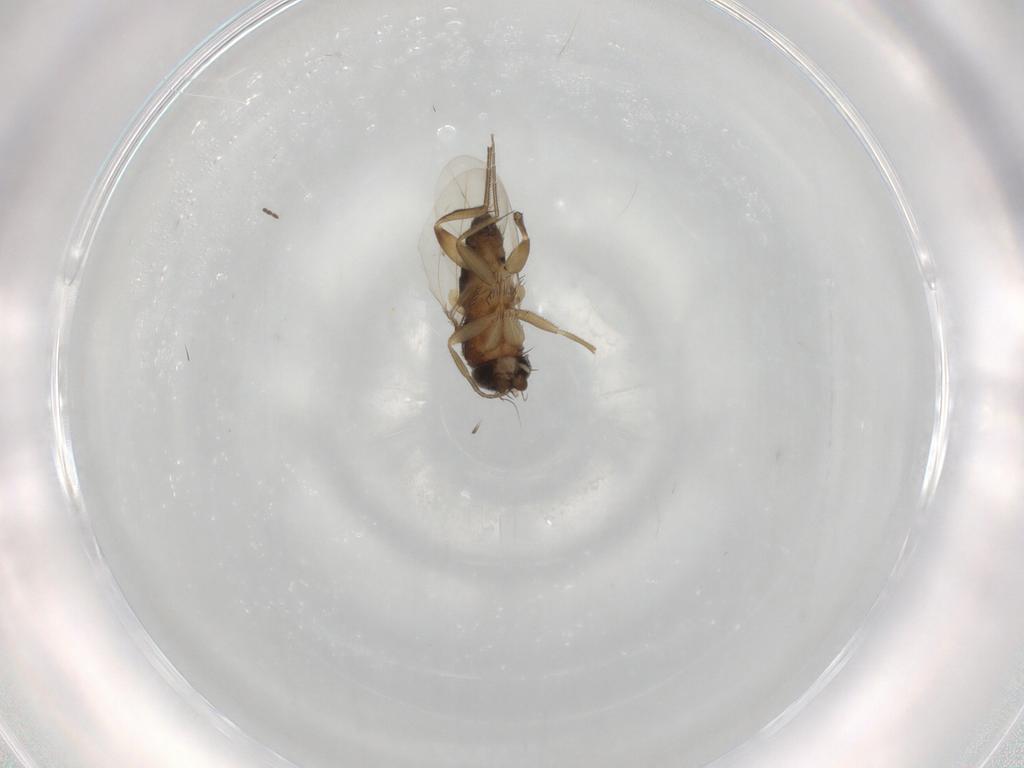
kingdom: Animalia
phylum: Arthropoda
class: Insecta
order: Diptera
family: Phoridae
